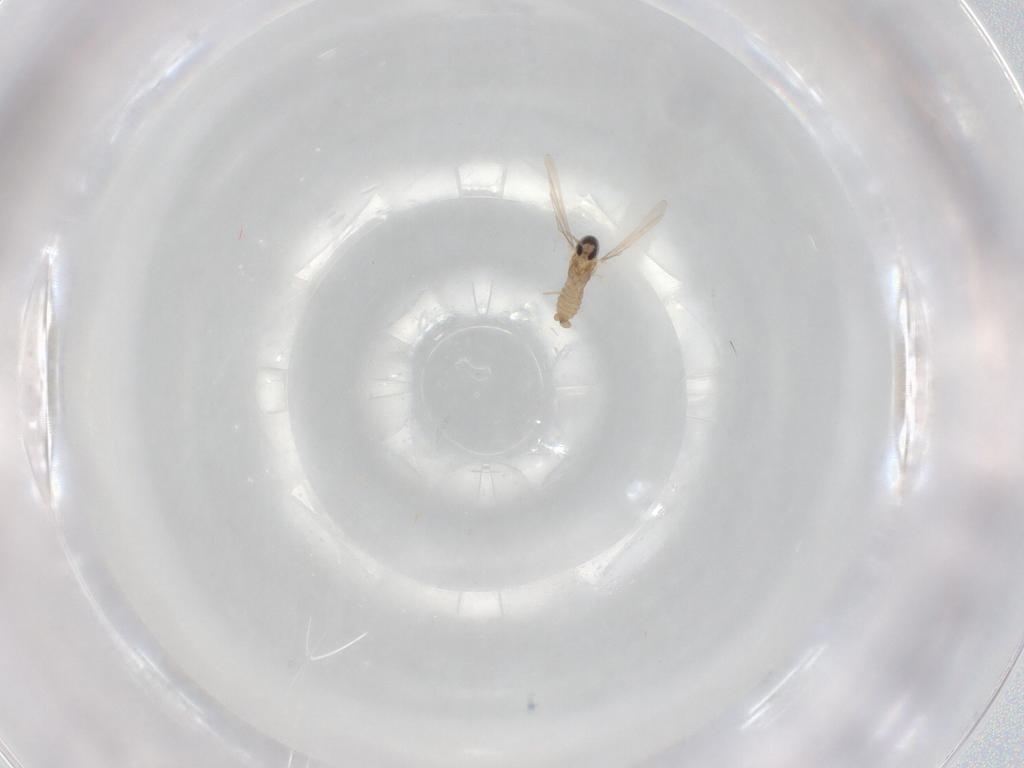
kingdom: Animalia
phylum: Arthropoda
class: Insecta
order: Diptera
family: Cecidomyiidae
